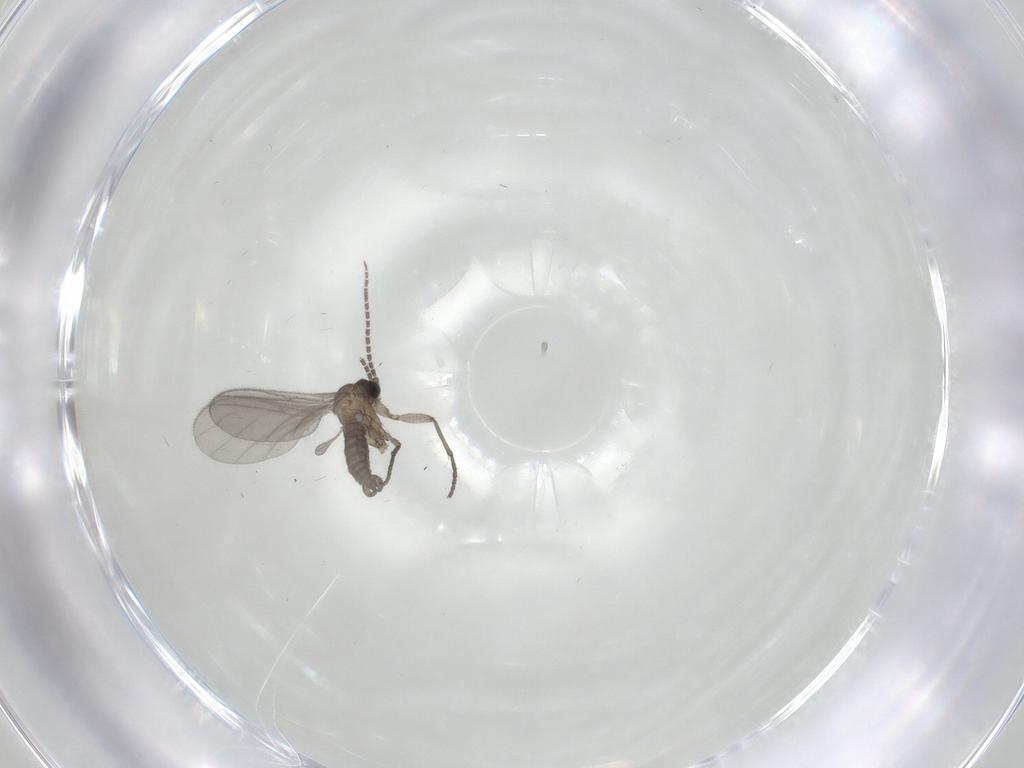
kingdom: Animalia
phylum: Arthropoda
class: Insecta
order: Diptera
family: Sciaridae
